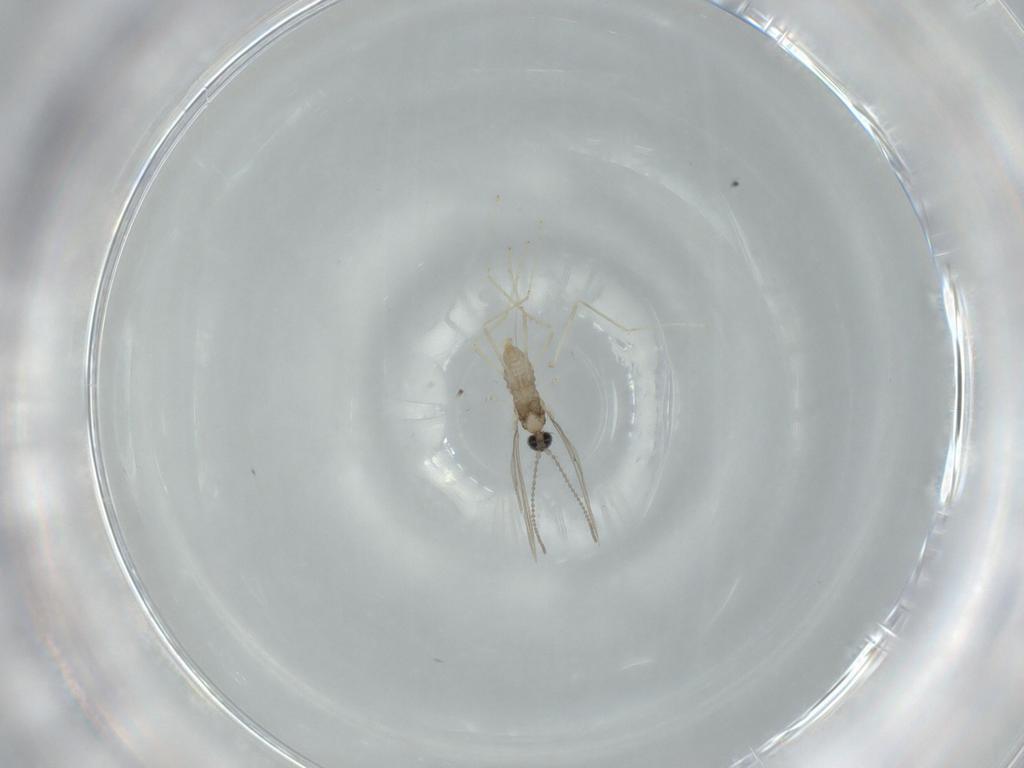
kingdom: Animalia
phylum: Arthropoda
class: Insecta
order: Diptera
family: Cecidomyiidae
